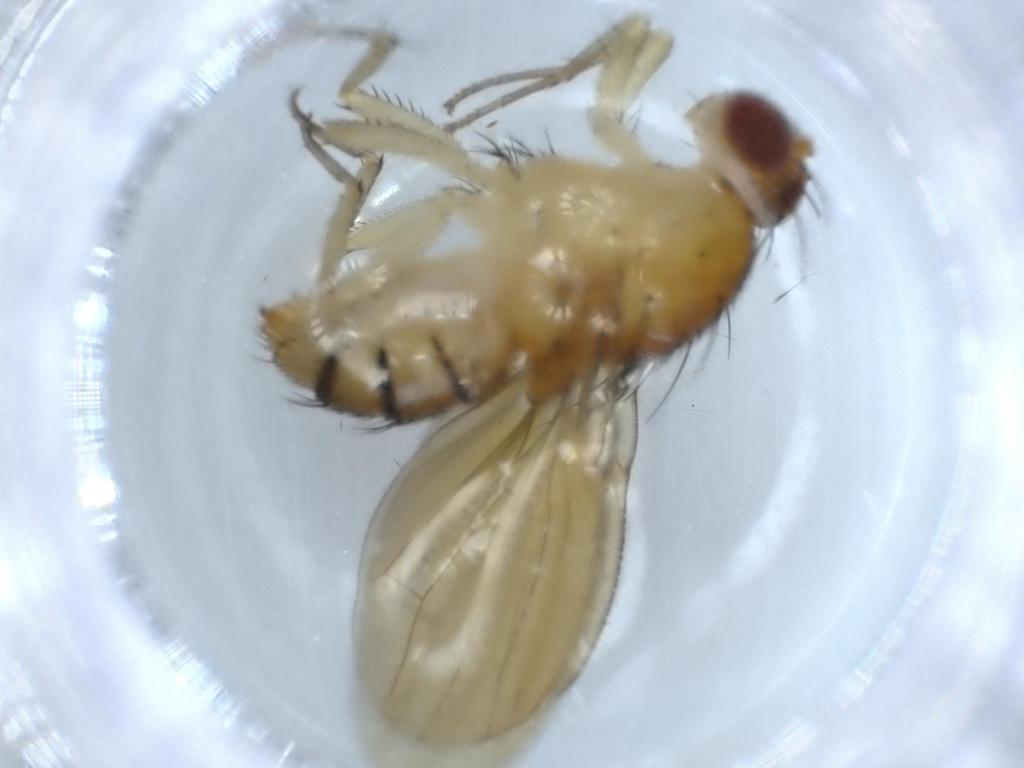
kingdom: Animalia
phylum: Arthropoda
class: Insecta
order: Diptera
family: Lauxaniidae
